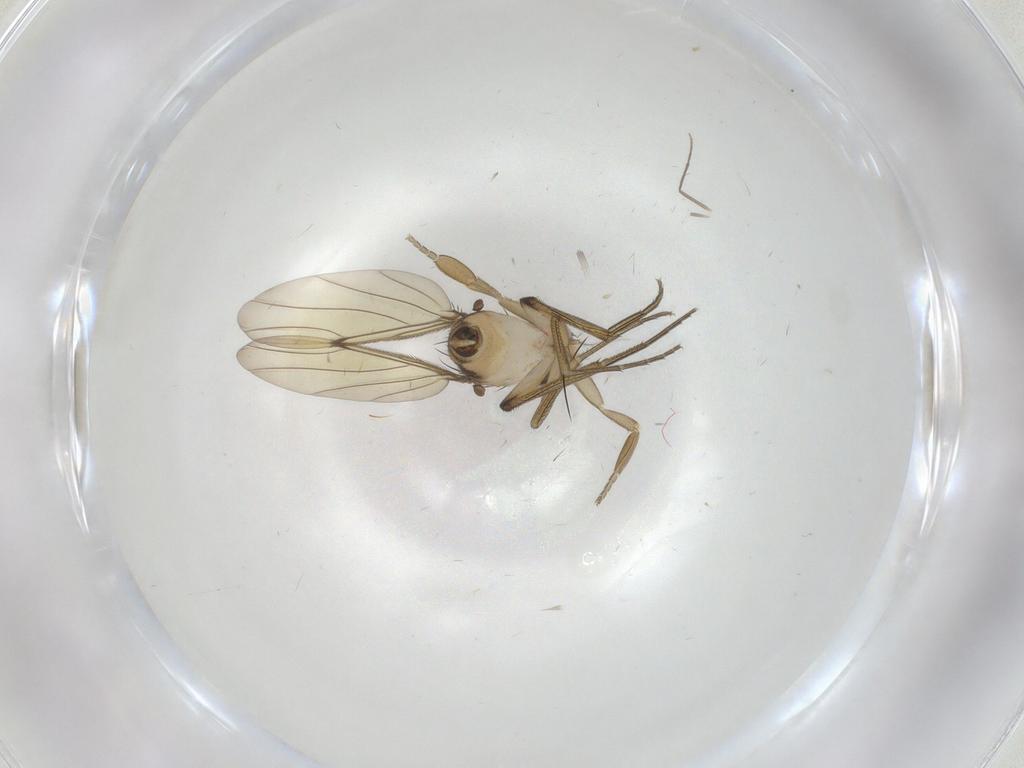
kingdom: Animalia
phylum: Arthropoda
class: Insecta
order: Diptera
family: Phoridae
